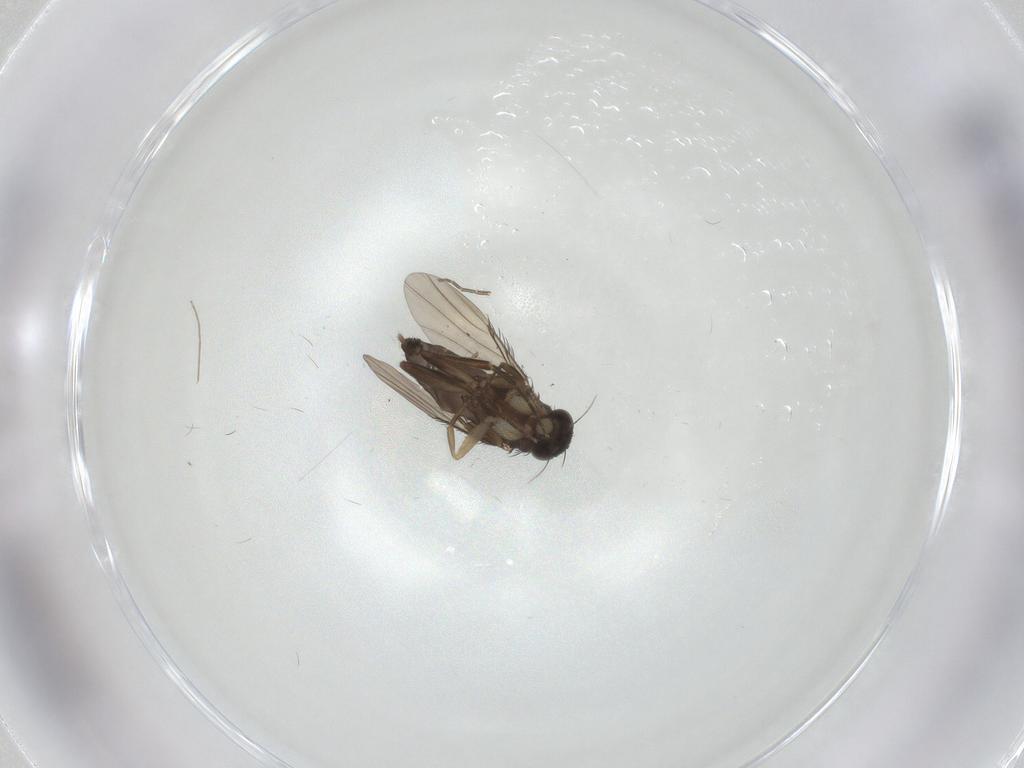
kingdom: Animalia
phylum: Arthropoda
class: Insecta
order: Diptera
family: Phoridae
